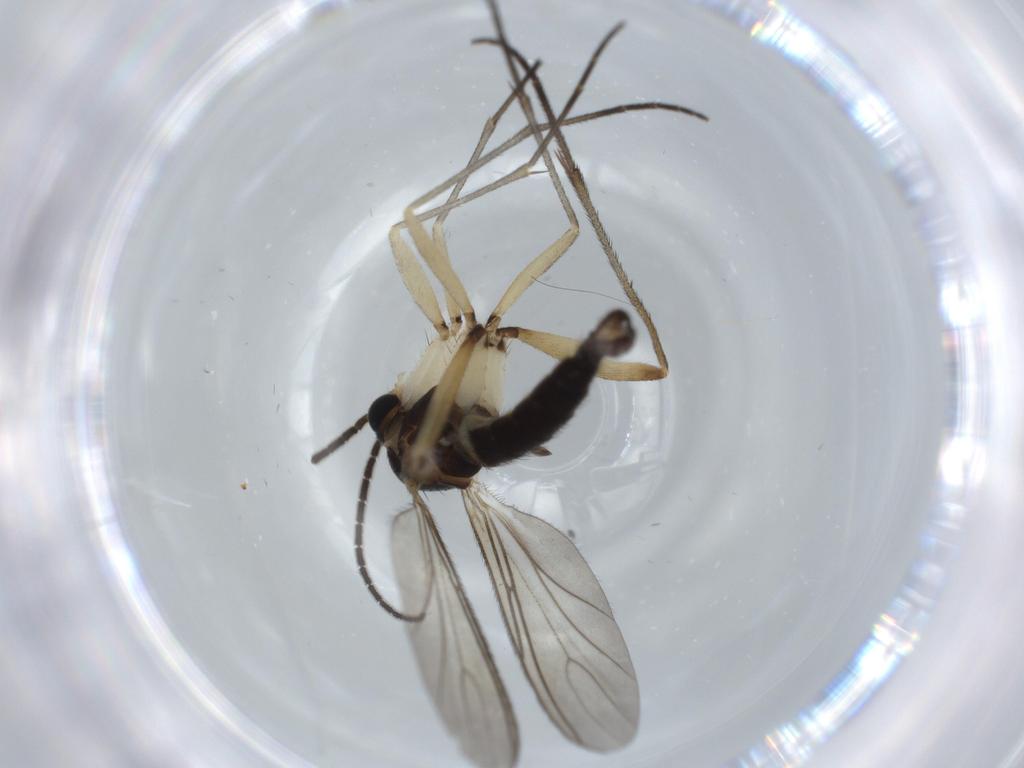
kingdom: Animalia
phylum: Arthropoda
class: Insecta
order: Diptera
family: Sciaridae
